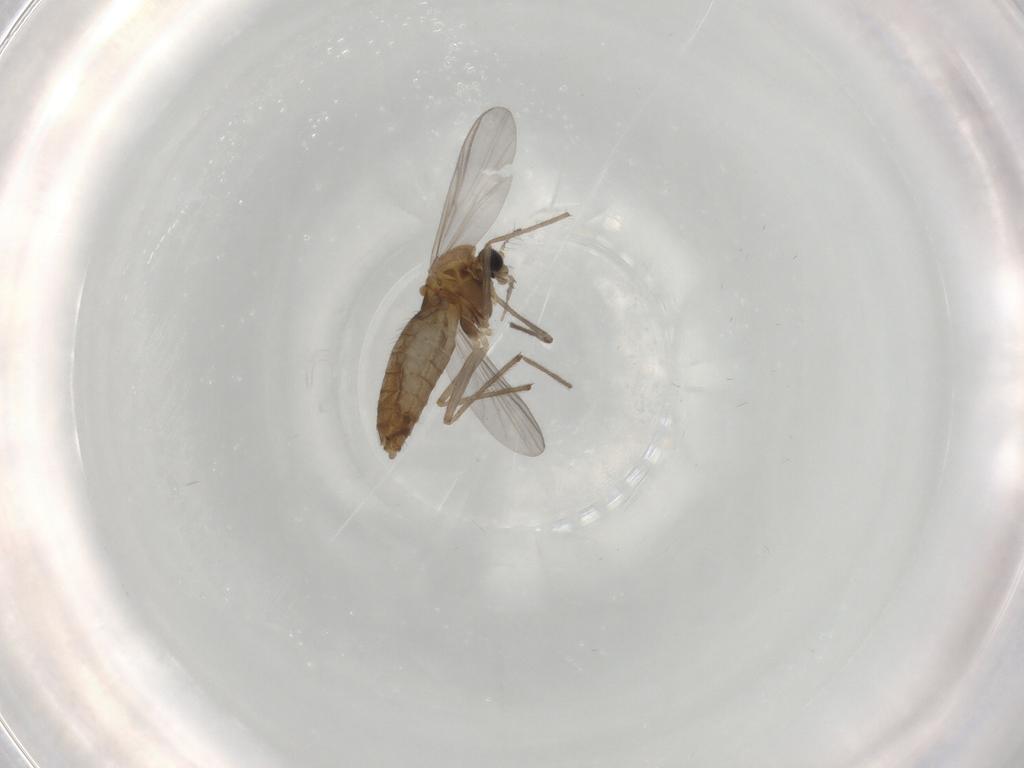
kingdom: Animalia
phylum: Arthropoda
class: Insecta
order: Diptera
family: Chironomidae
